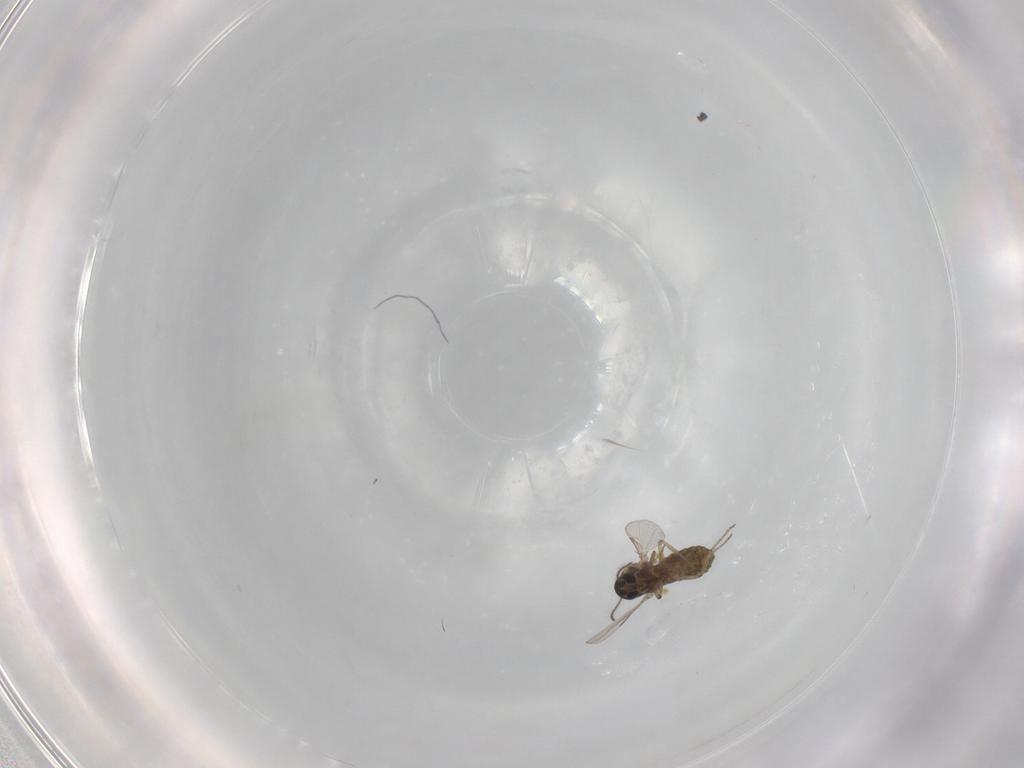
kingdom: Animalia
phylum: Arthropoda
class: Insecta
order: Diptera
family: Ceratopogonidae
